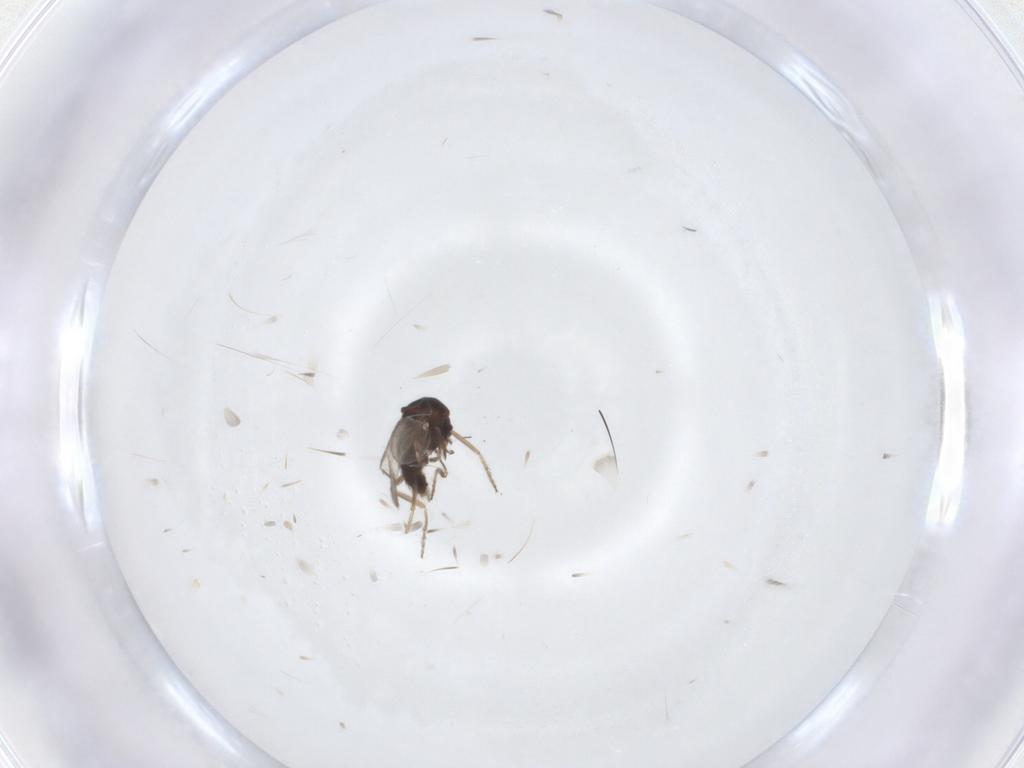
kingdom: Animalia
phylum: Arthropoda
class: Insecta
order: Diptera
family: Ceratopogonidae
